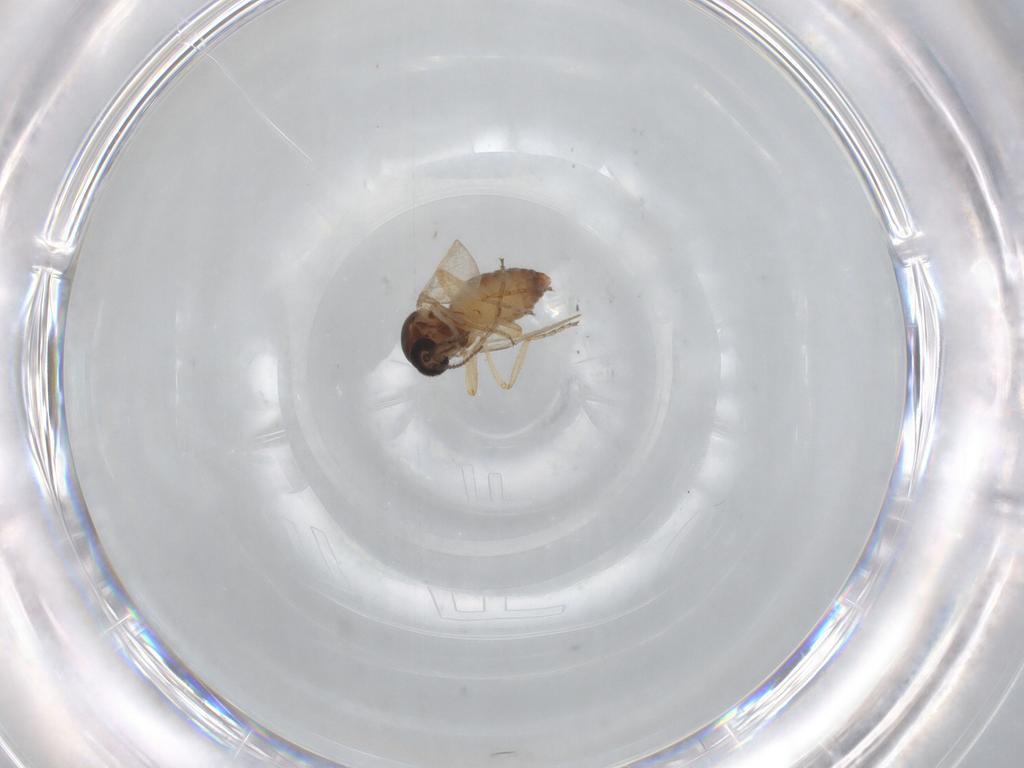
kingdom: Animalia
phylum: Arthropoda
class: Insecta
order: Diptera
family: Ceratopogonidae
